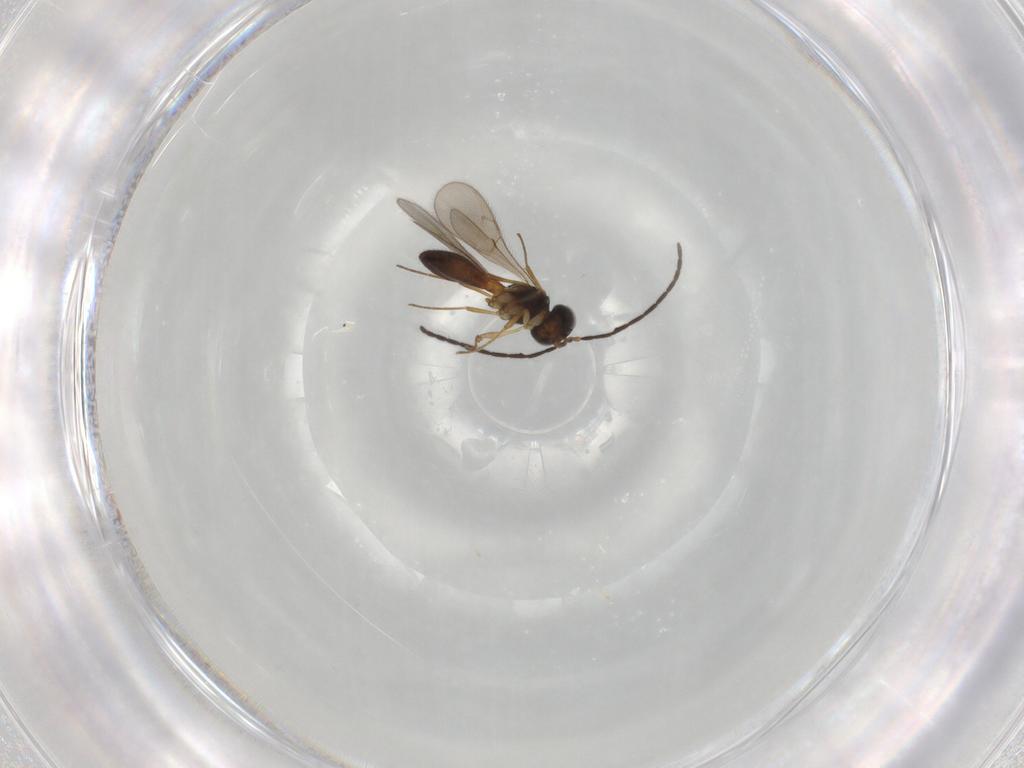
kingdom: Animalia
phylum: Arthropoda
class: Insecta
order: Hymenoptera
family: Scelionidae
